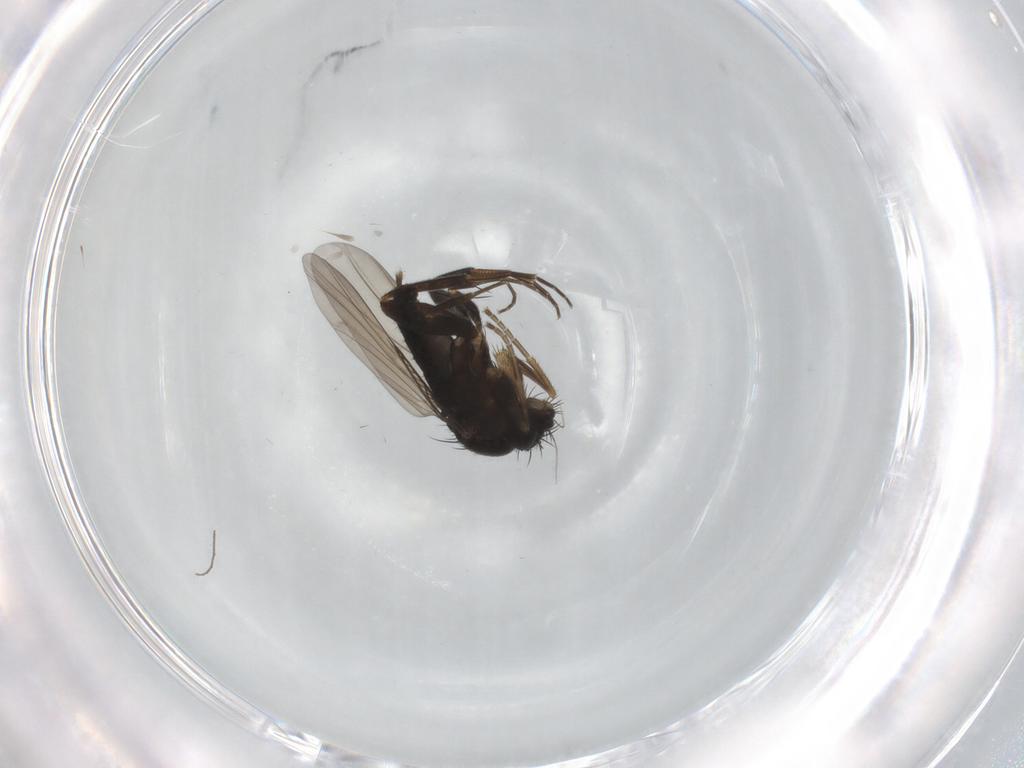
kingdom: Animalia
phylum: Arthropoda
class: Insecta
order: Diptera
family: Phoridae
